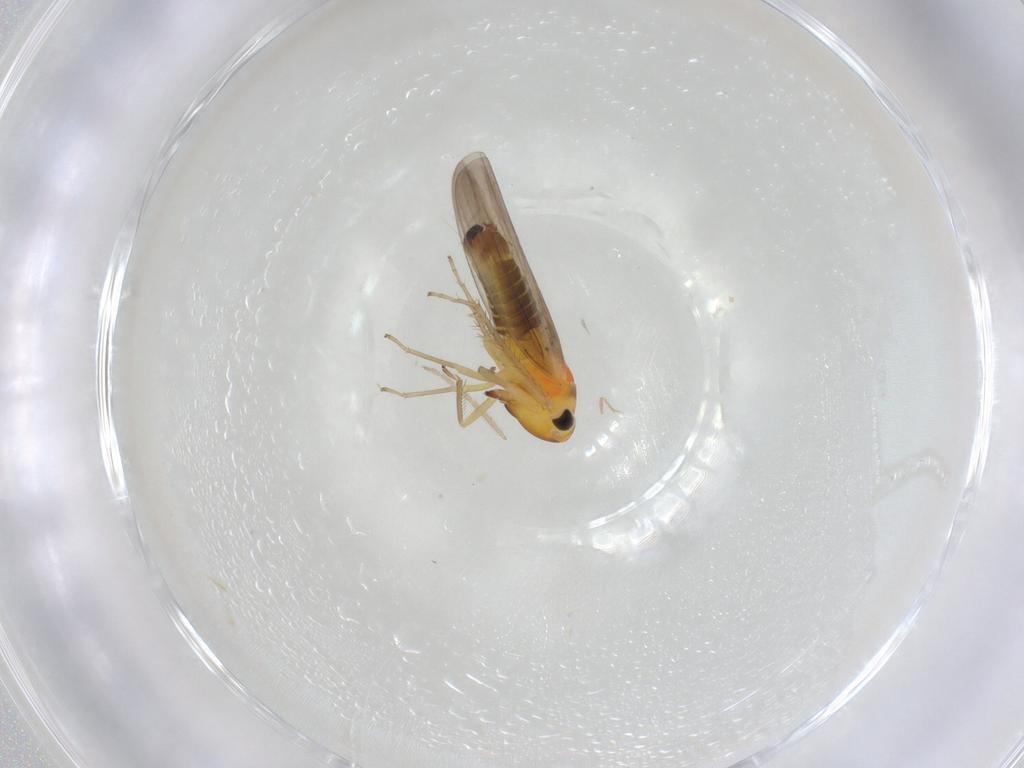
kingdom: Animalia
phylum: Arthropoda
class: Insecta
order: Hemiptera
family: Cicadellidae
